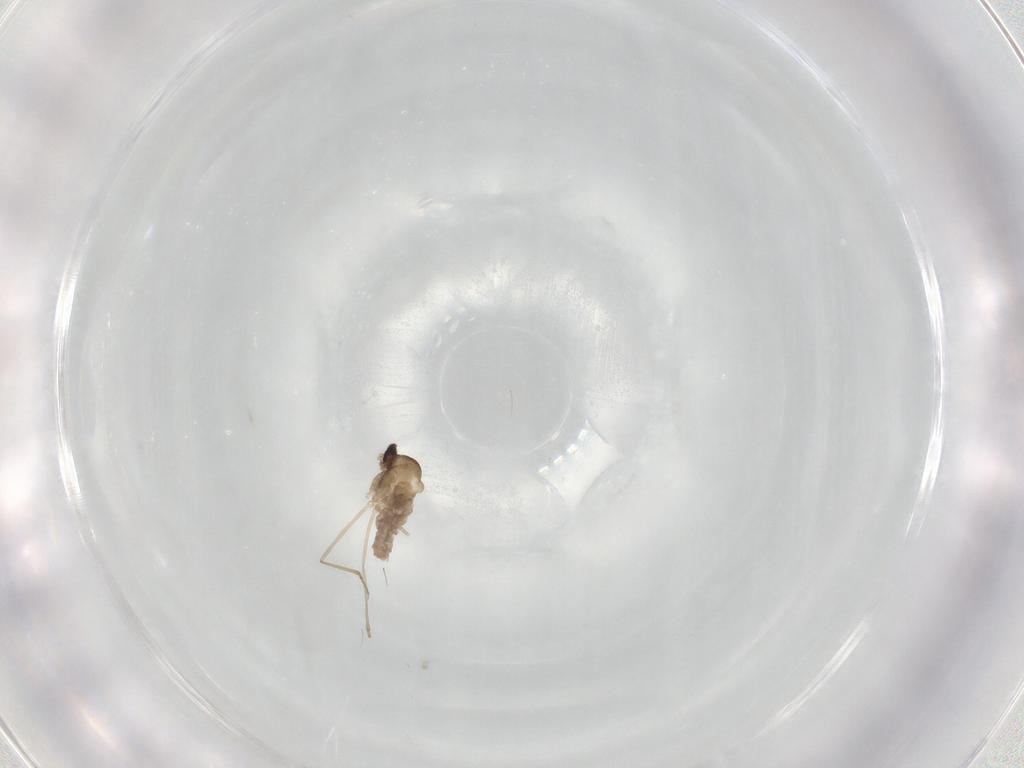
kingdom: Animalia
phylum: Arthropoda
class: Insecta
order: Diptera
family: Cecidomyiidae
